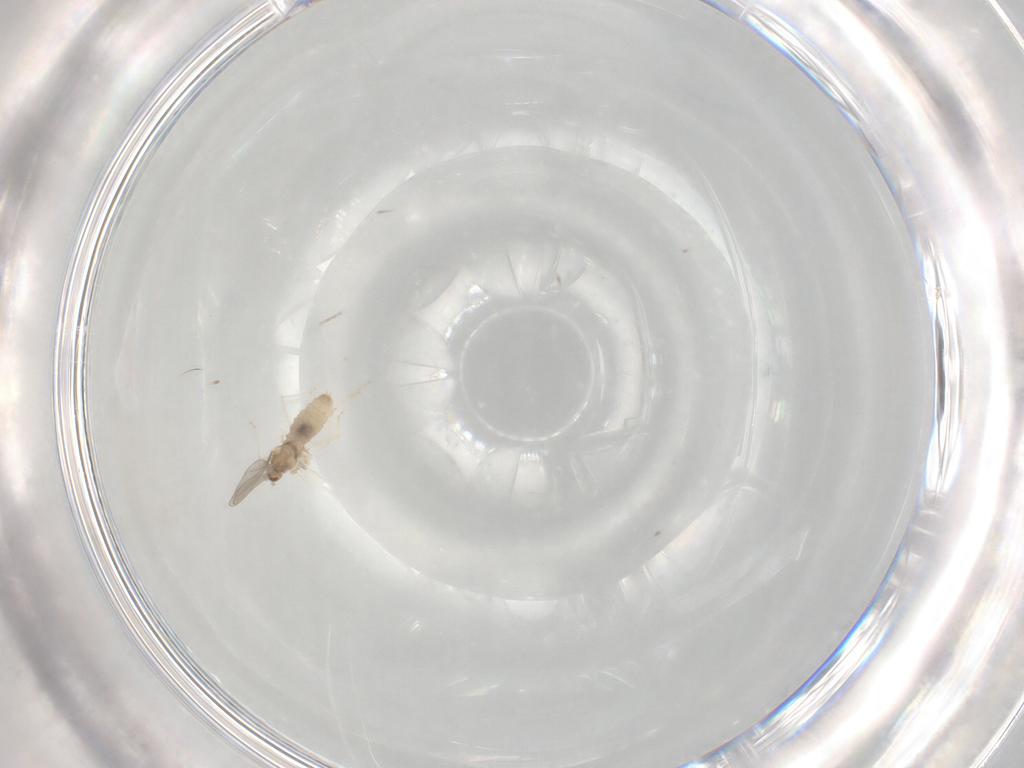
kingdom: Animalia
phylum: Arthropoda
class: Insecta
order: Diptera
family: Cecidomyiidae
